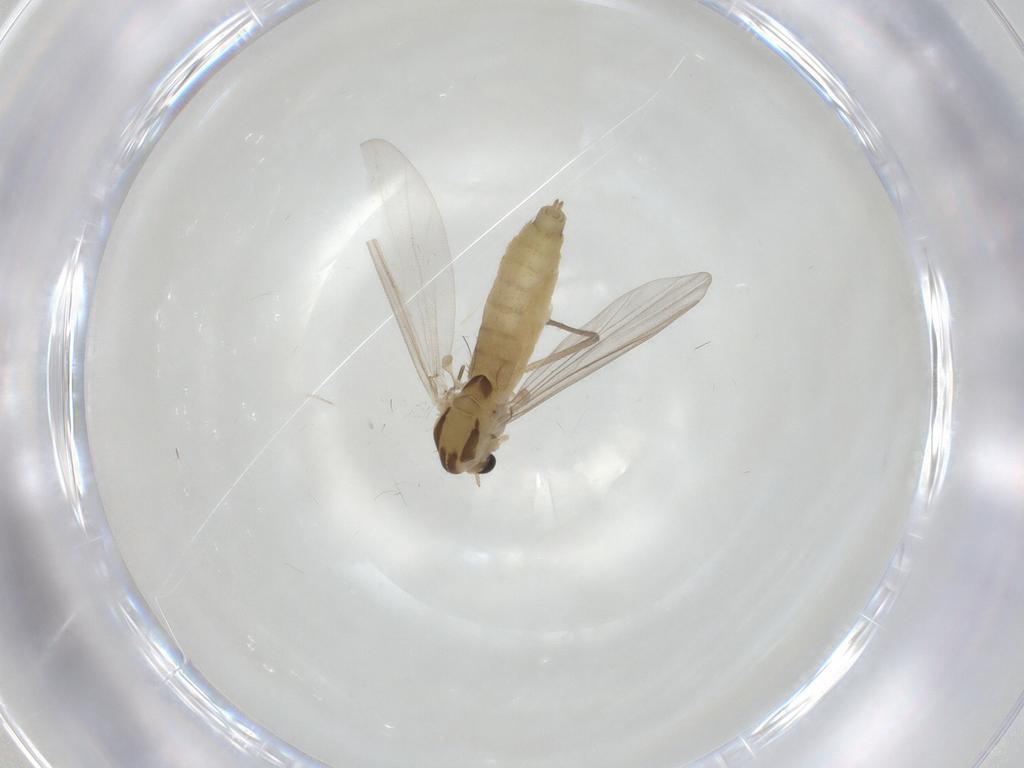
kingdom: Animalia
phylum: Arthropoda
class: Insecta
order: Diptera
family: Chironomidae
